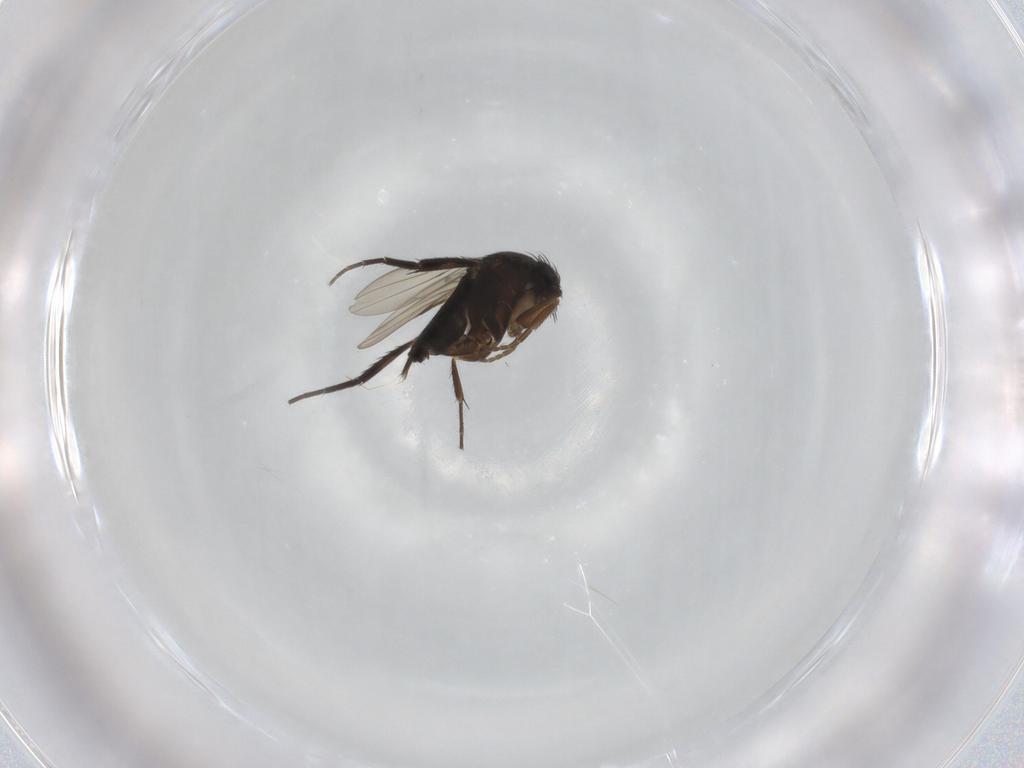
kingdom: Animalia
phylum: Arthropoda
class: Insecta
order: Diptera
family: Phoridae
